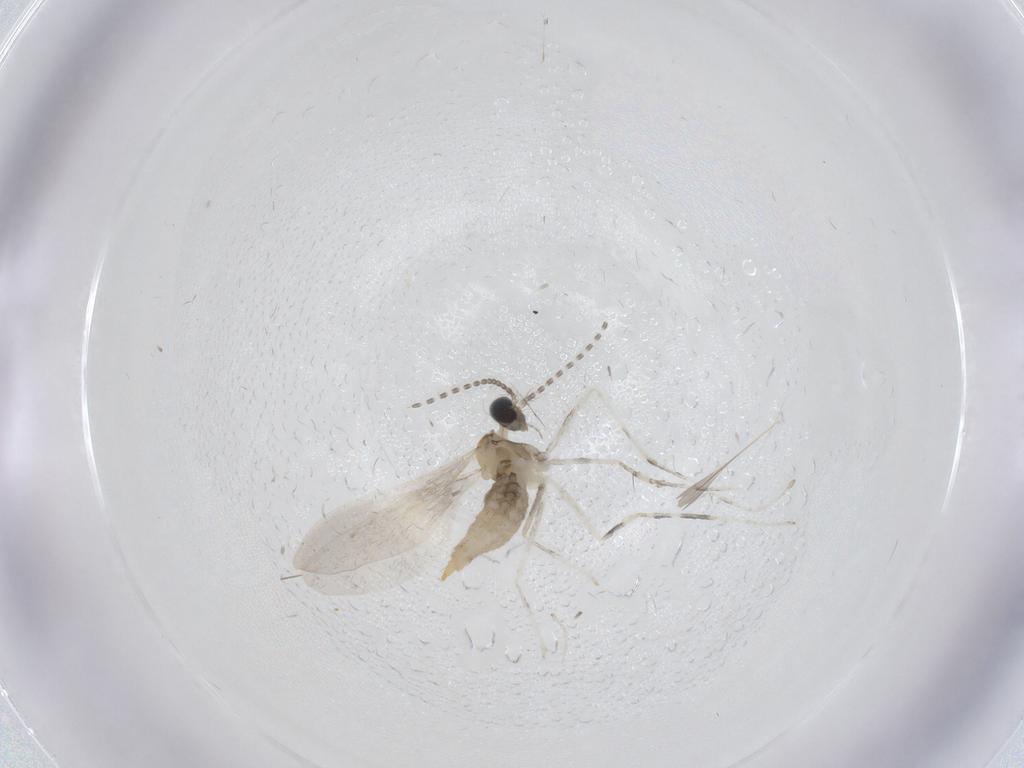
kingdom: Animalia
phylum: Arthropoda
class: Insecta
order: Diptera
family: Cecidomyiidae
